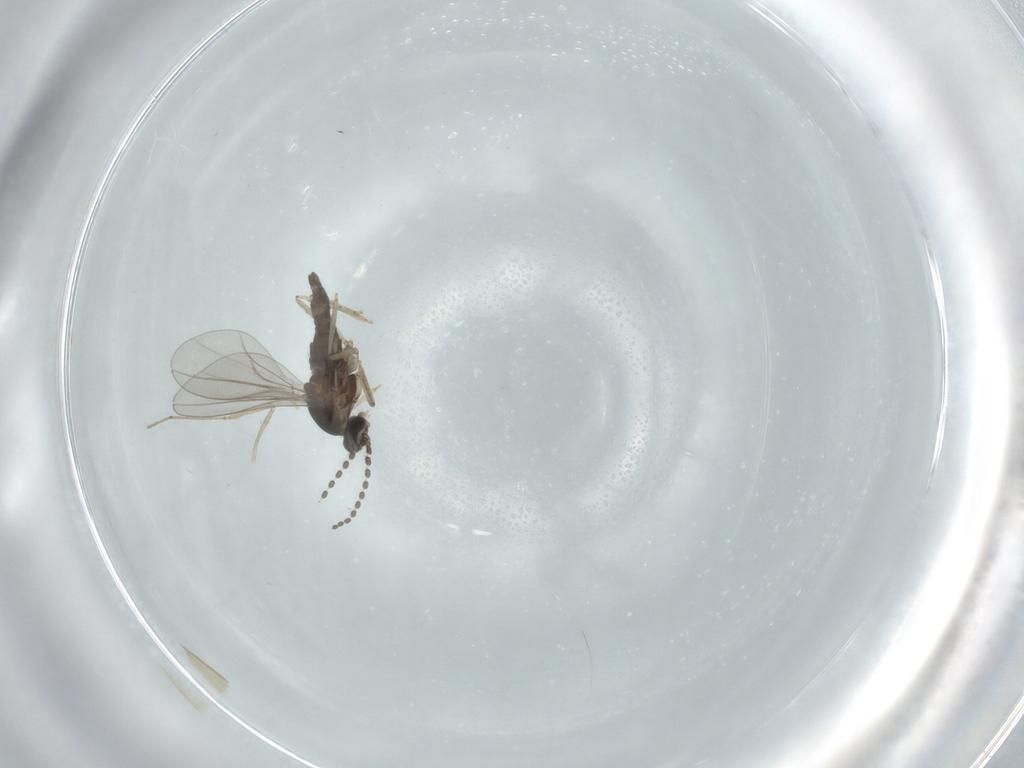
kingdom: Animalia
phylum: Arthropoda
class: Insecta
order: Diptera
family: Cecidomyiidae
